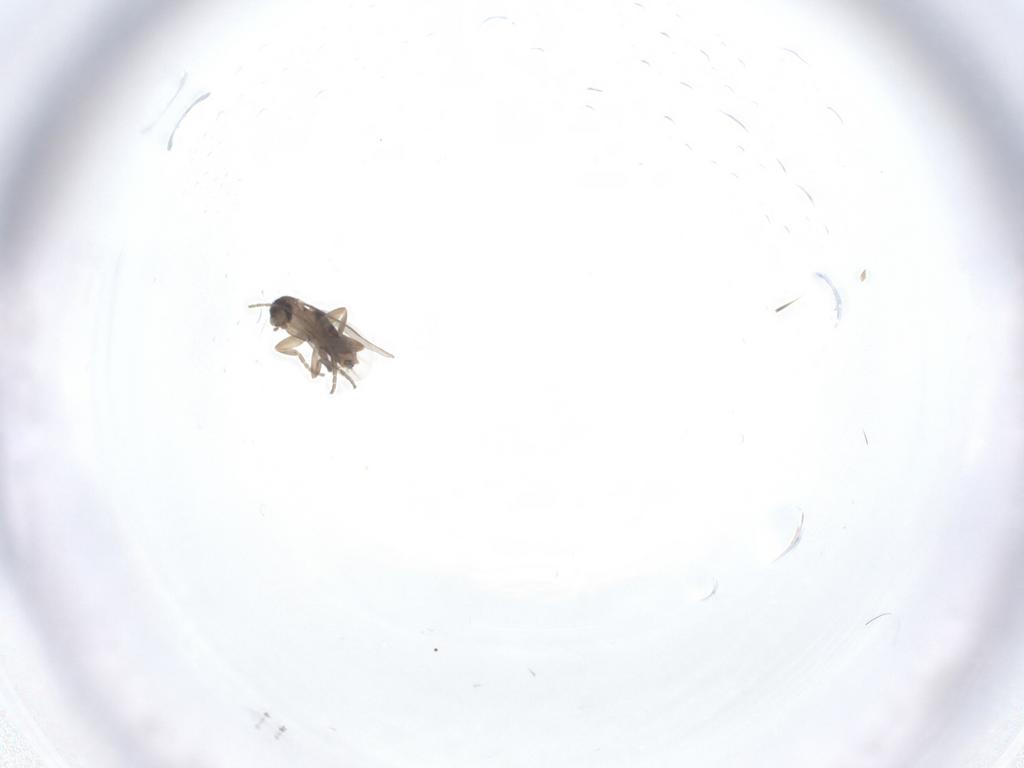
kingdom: Animalia
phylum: Arthropoda
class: Insecta
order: Diptera
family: Chironomidae
